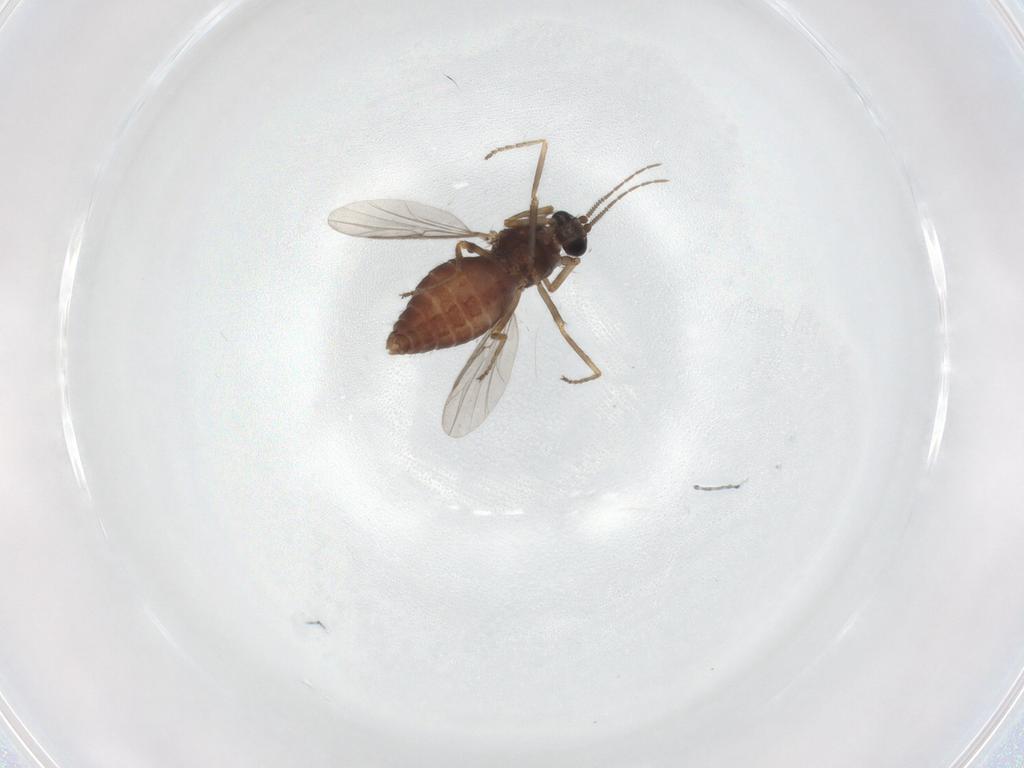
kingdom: Animalia
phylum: Arthropoda
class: Insecta
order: Diptera
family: Ceratopogonidae
